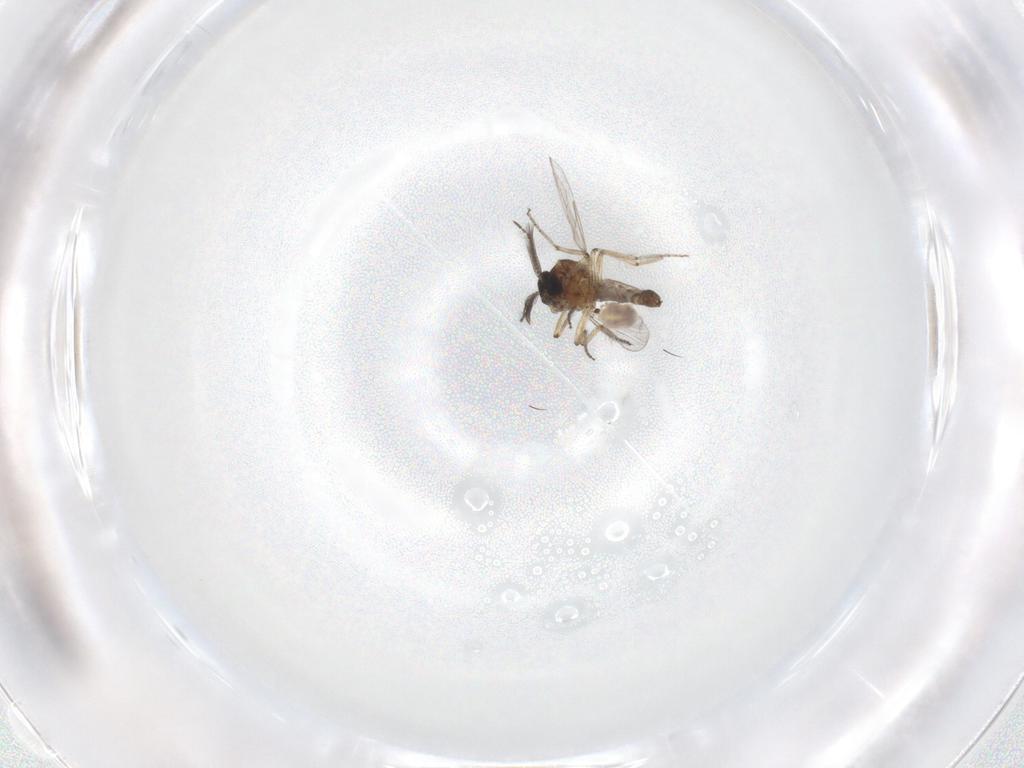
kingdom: Animalia
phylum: Arthropoda
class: Insecta
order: Diptera
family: Ceratopogonidae
